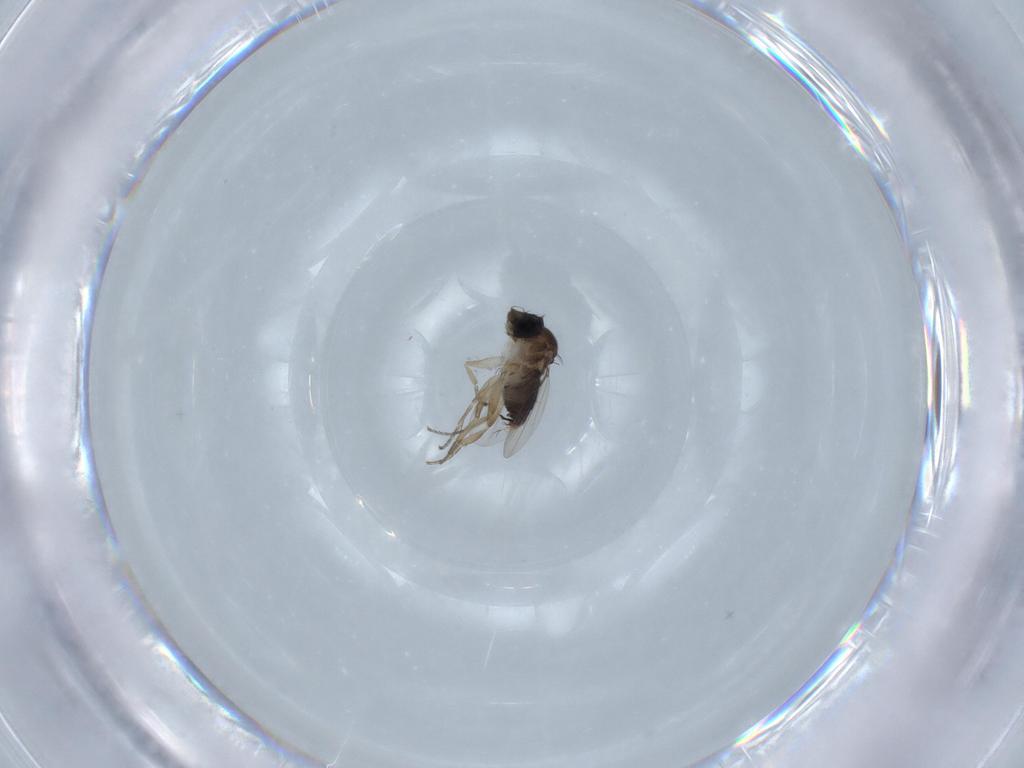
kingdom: Animalia
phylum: Arthropoda
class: Insecta
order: Diptera
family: Phoridae
